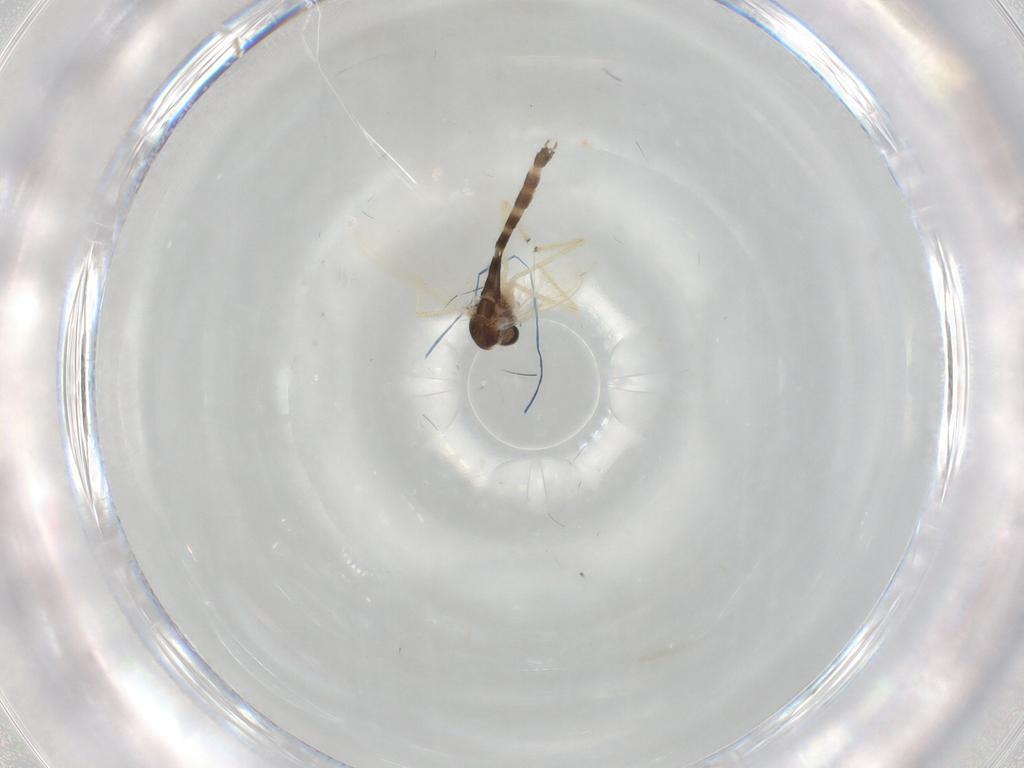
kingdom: Animalia
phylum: Arthropoda
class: Insecta
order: Diptera
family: Chironomidae
